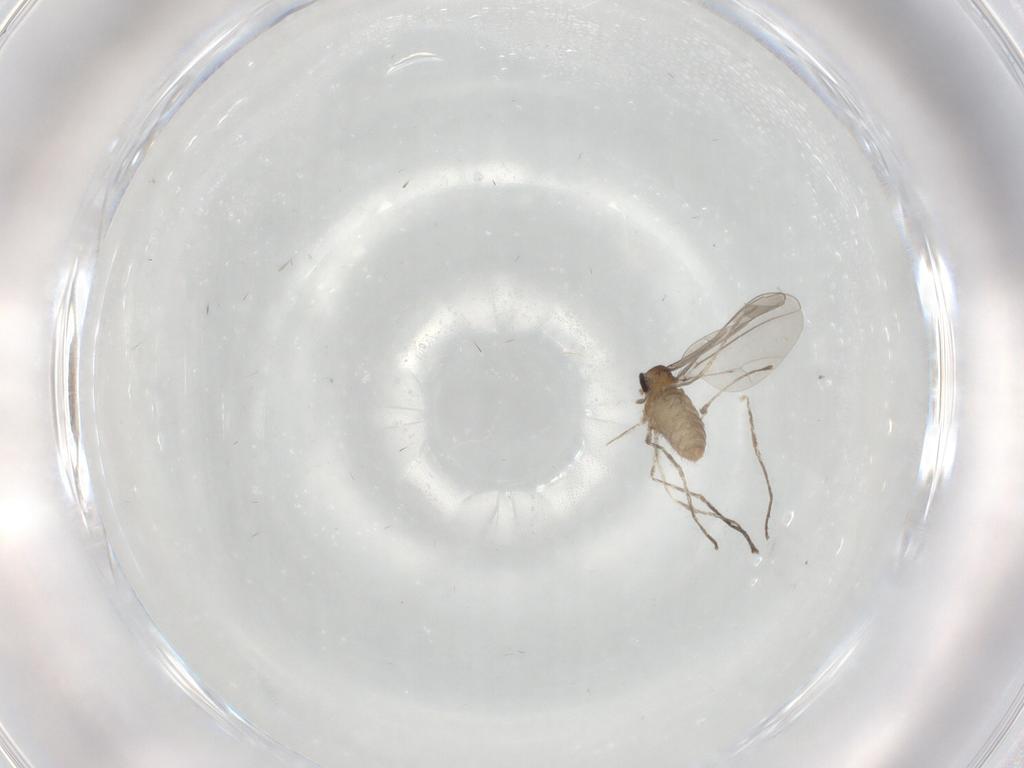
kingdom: Animalia
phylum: Arthropoda
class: Insecta
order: Diptera
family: Cecidomyiidae
